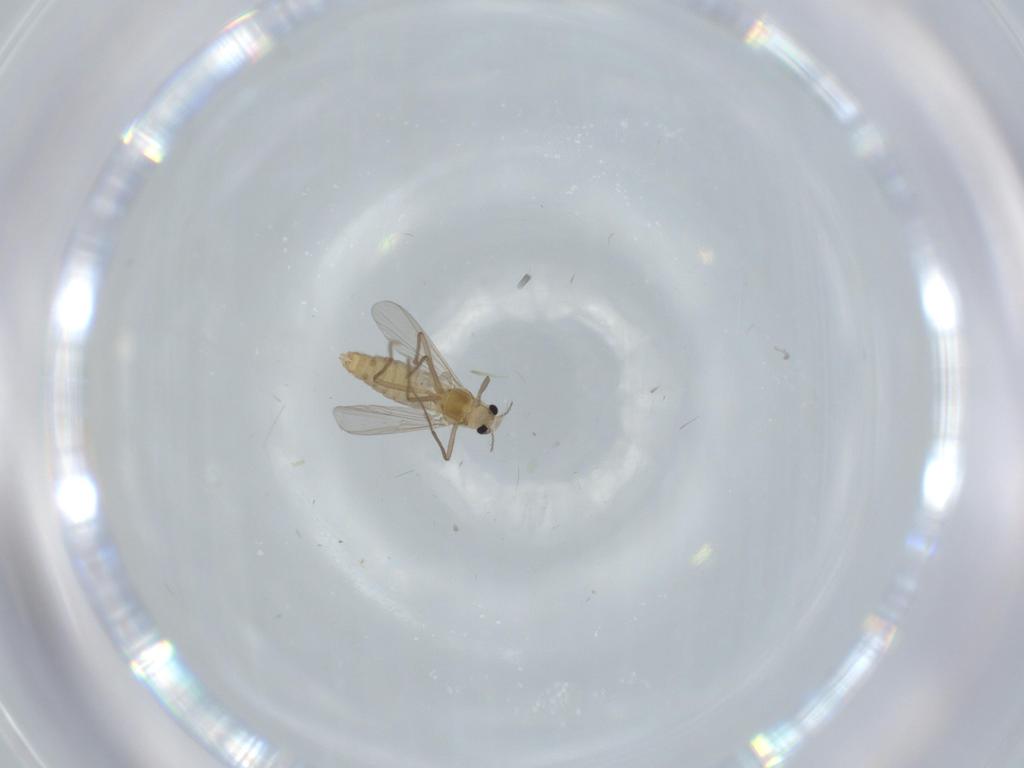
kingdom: Animalia
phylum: Arthropoda
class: Insecta
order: Diptera
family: Chironomidae
